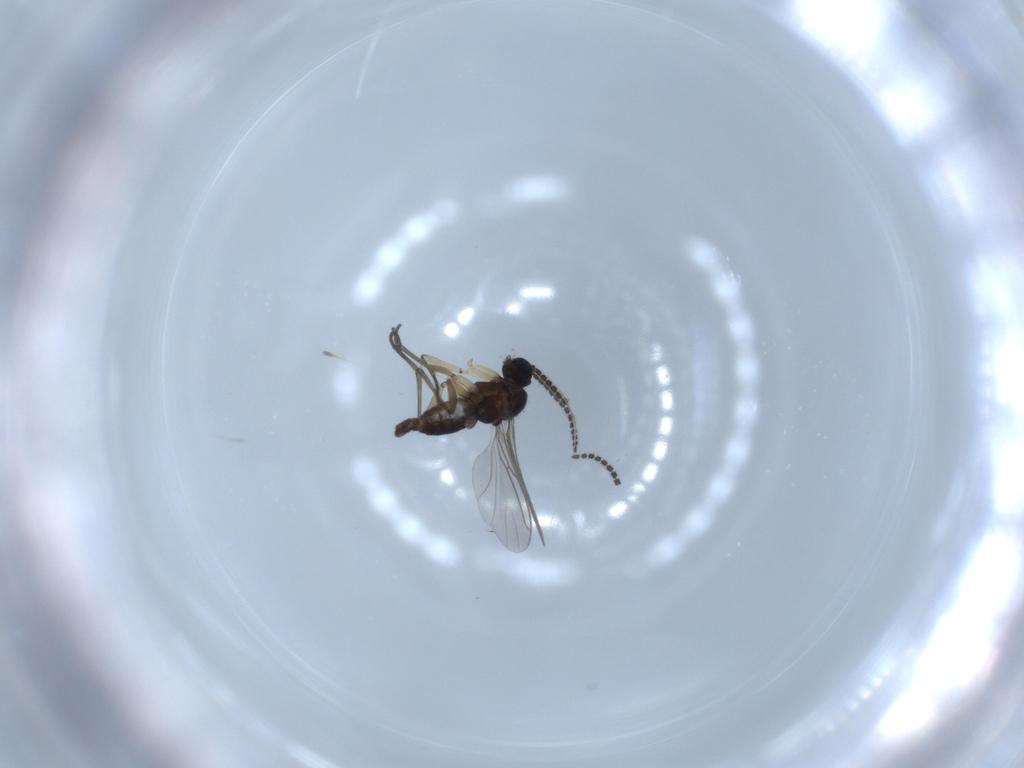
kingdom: Animalia
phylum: Arthropoda
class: Insecta
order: Diptera
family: Sciaridae
